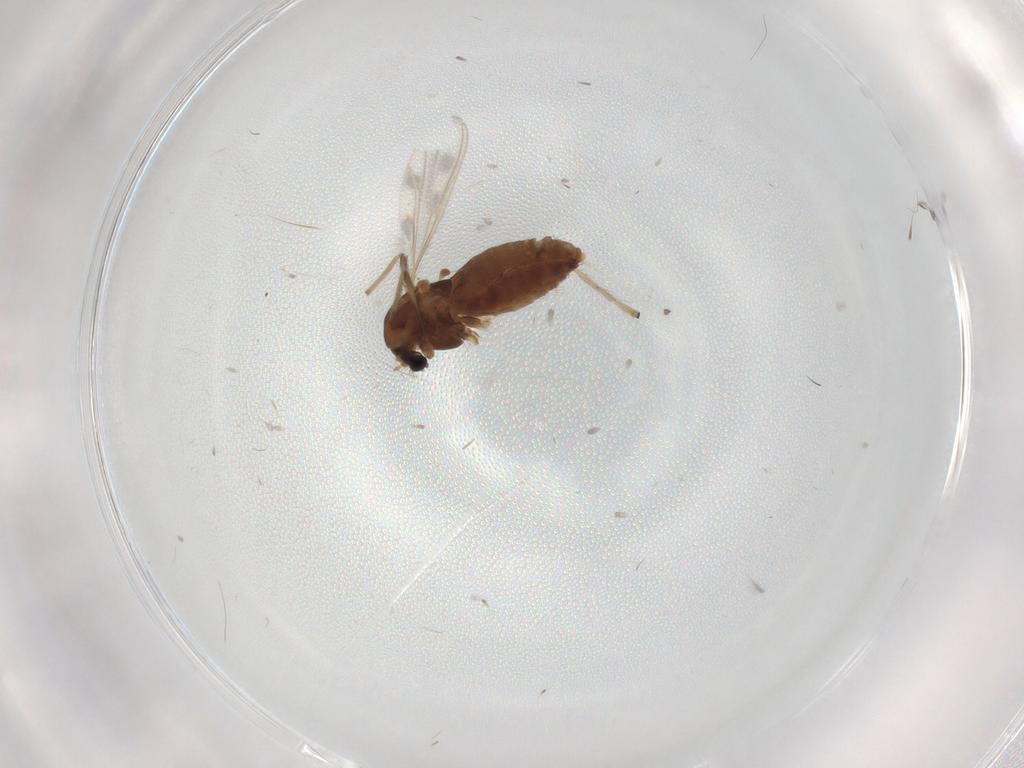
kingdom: Animalia
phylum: Arthropoda
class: Insecta
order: Diptera
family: Chironomidae
